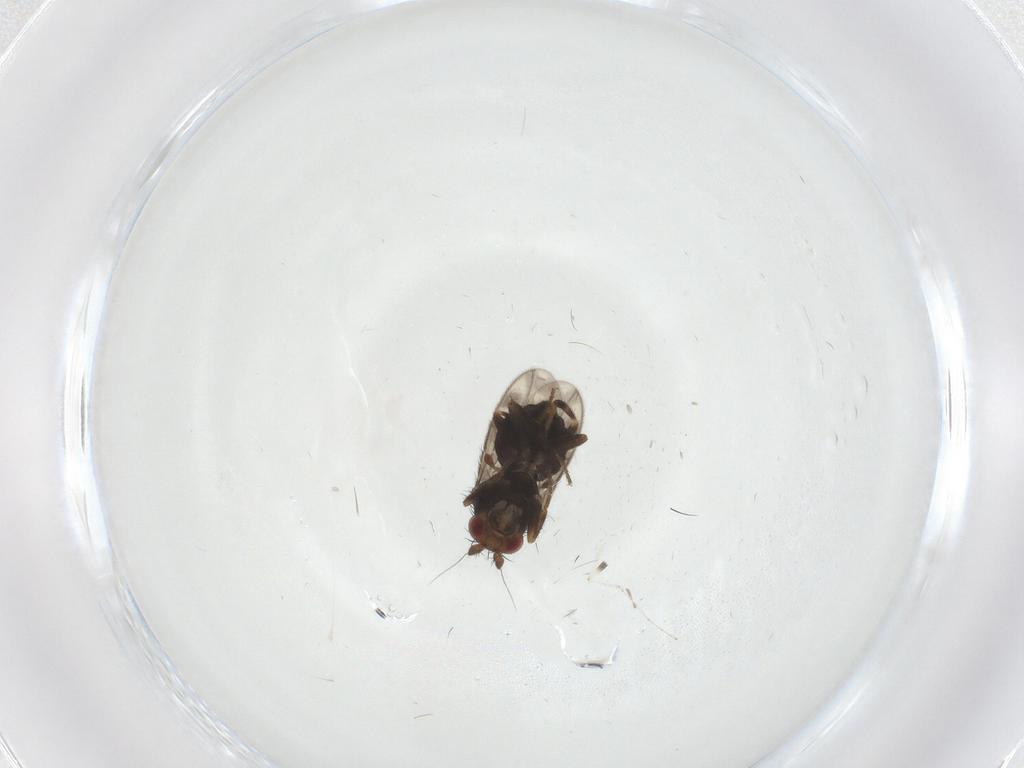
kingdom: Animalia
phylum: Arthropoda
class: Insecta
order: Diptera
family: Sphaeroceridae
